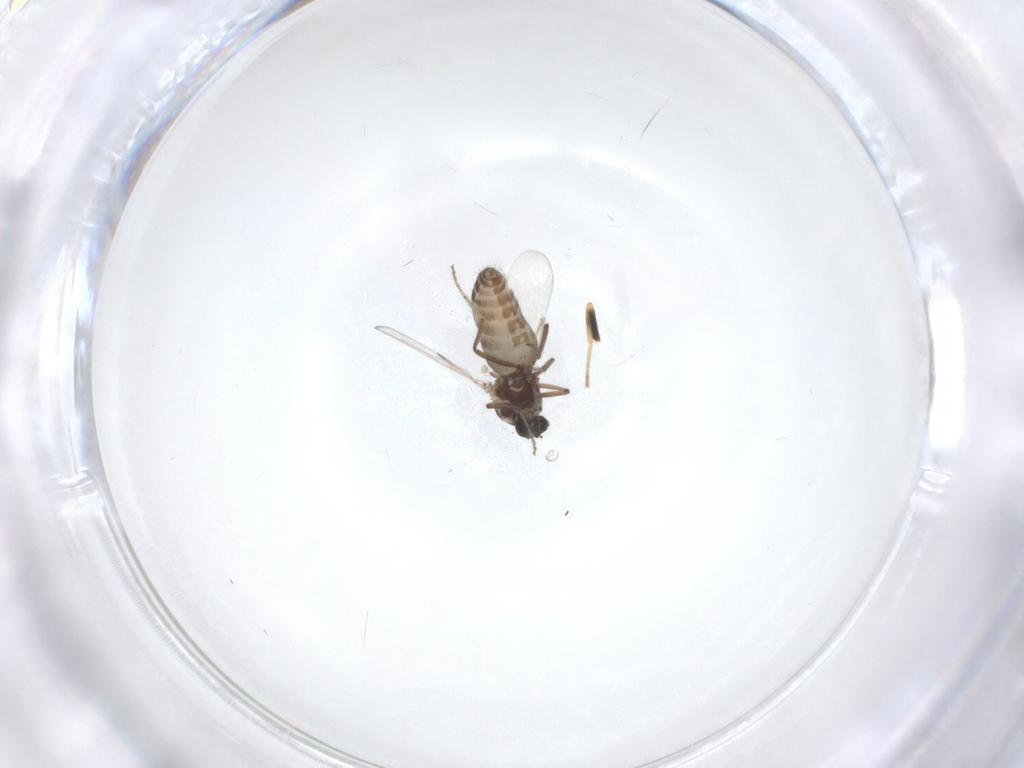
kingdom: Animalia
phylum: Arthropoda
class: Insecta
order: Diptera
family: Ceratopogonidae
